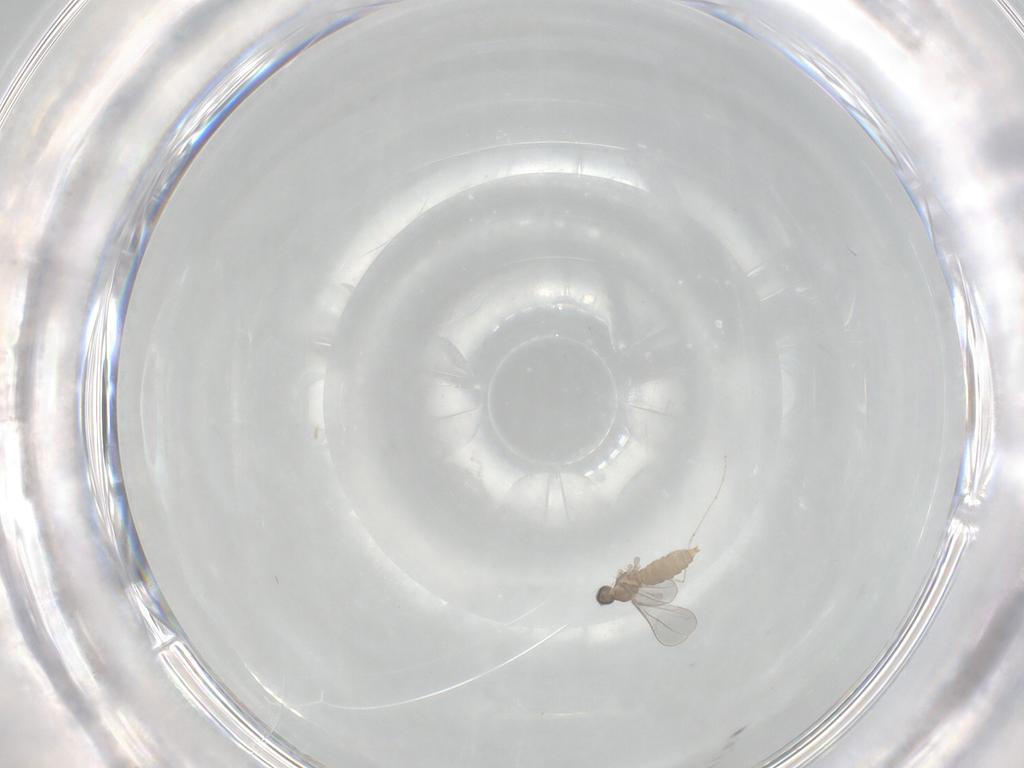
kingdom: Animalia
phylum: Arthropoda
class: Insecta
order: Diptera
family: Cecidomyiidae
